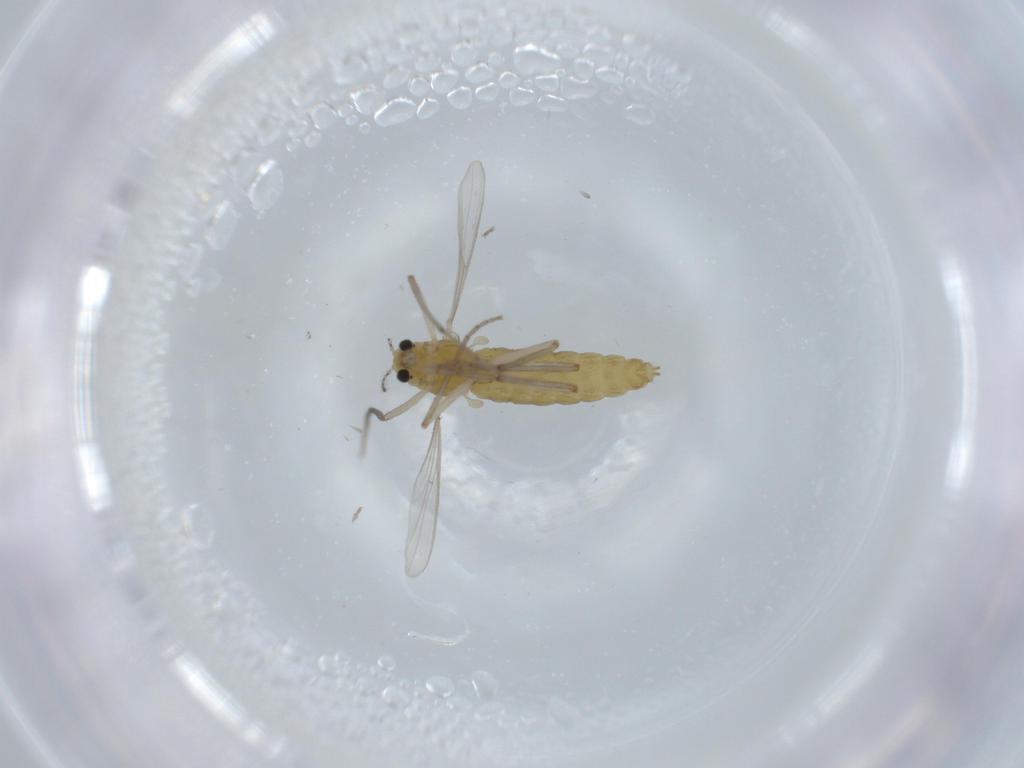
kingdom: Animalia
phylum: Arthropoda
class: Insecta
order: Diptera
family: Chironomidae
